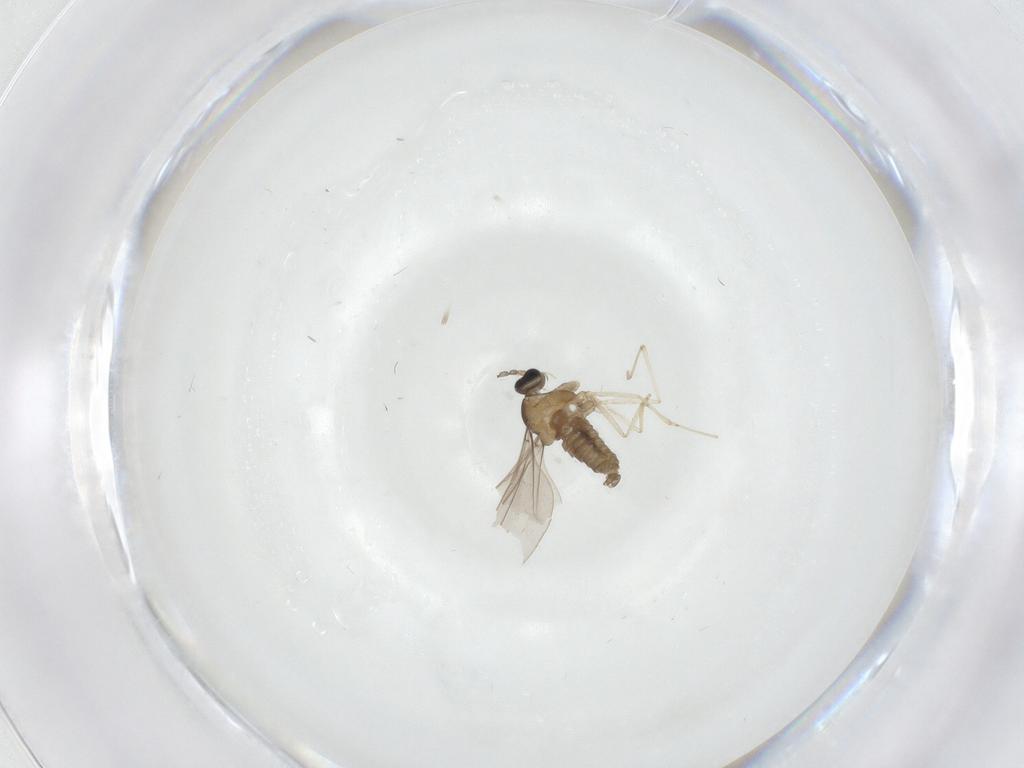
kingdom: Animalia
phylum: Arthropoda
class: Insecta
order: Diptera
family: Cecidomyiidae
